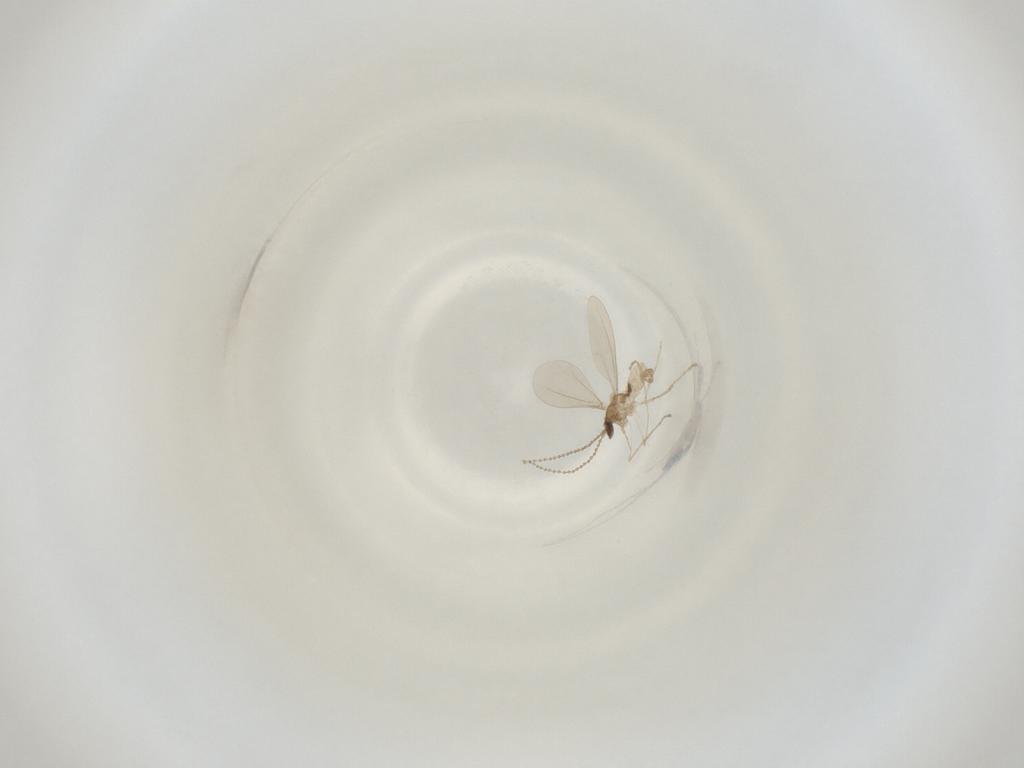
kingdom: Animalia
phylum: Arthropoda
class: Insecta
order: Diptera
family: Cecidomyiidae
